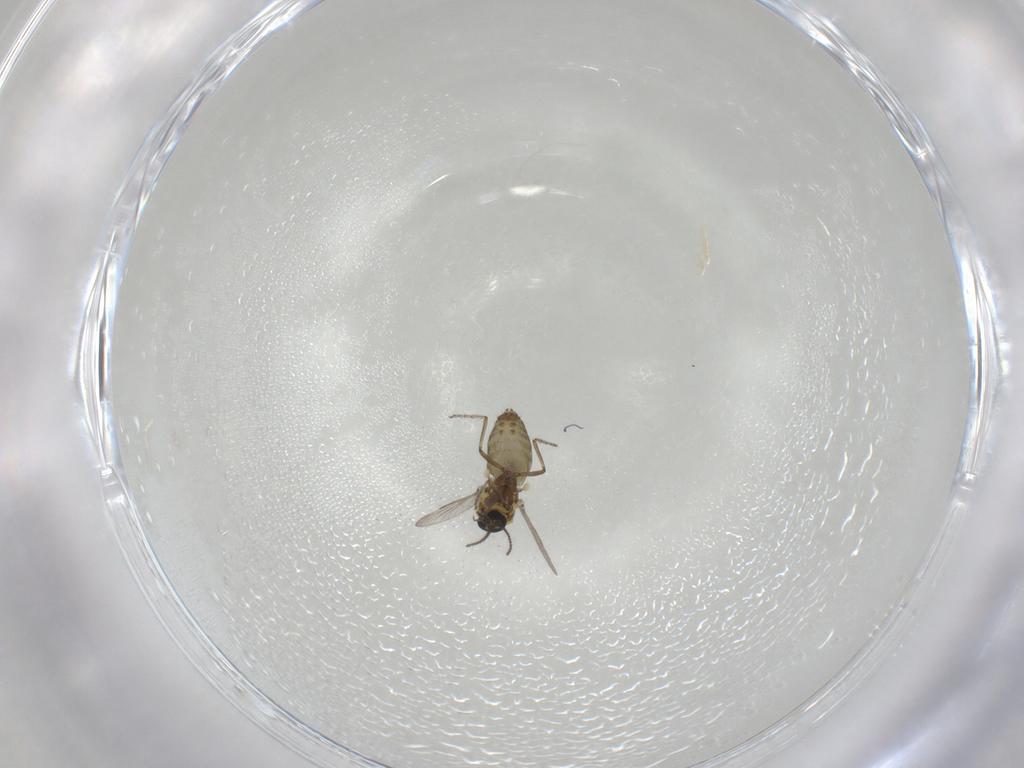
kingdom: Animalia
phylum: Arthropoda
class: Insecta
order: Diptera
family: Ceratopogonidae
